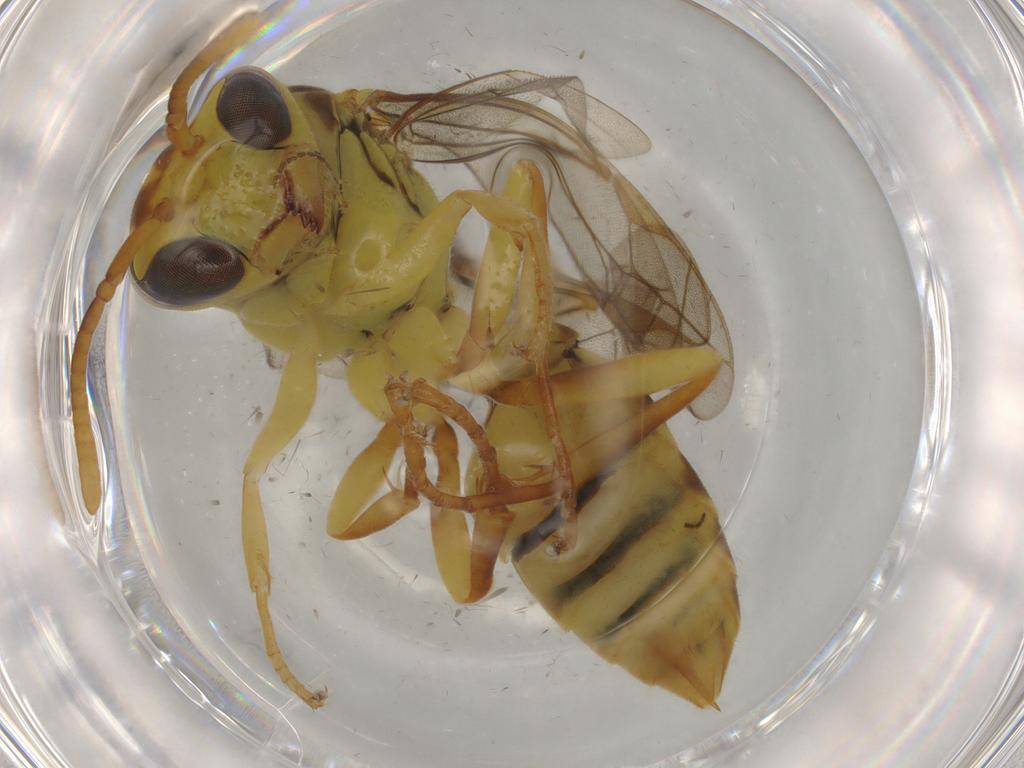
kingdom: Animalia
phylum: Arthropoda
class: Insecta
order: Hymenoptera
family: Vespidae
